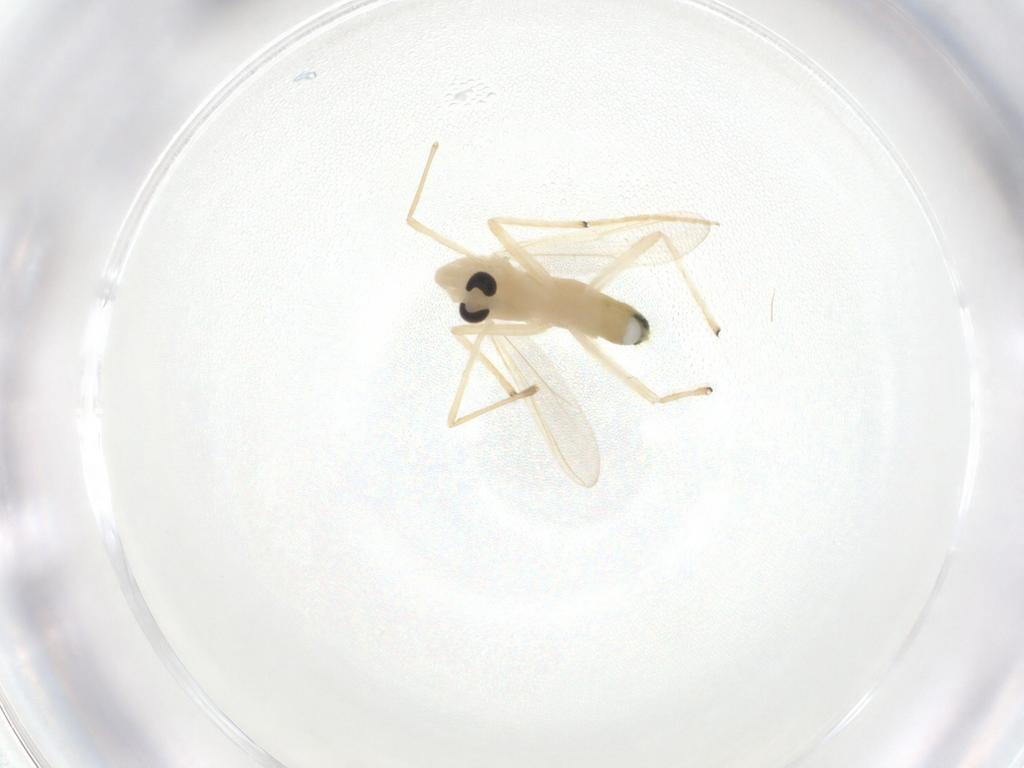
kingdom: Animalia
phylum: Arthropoda
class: Insecta
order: Diptera
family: Chironomidae
